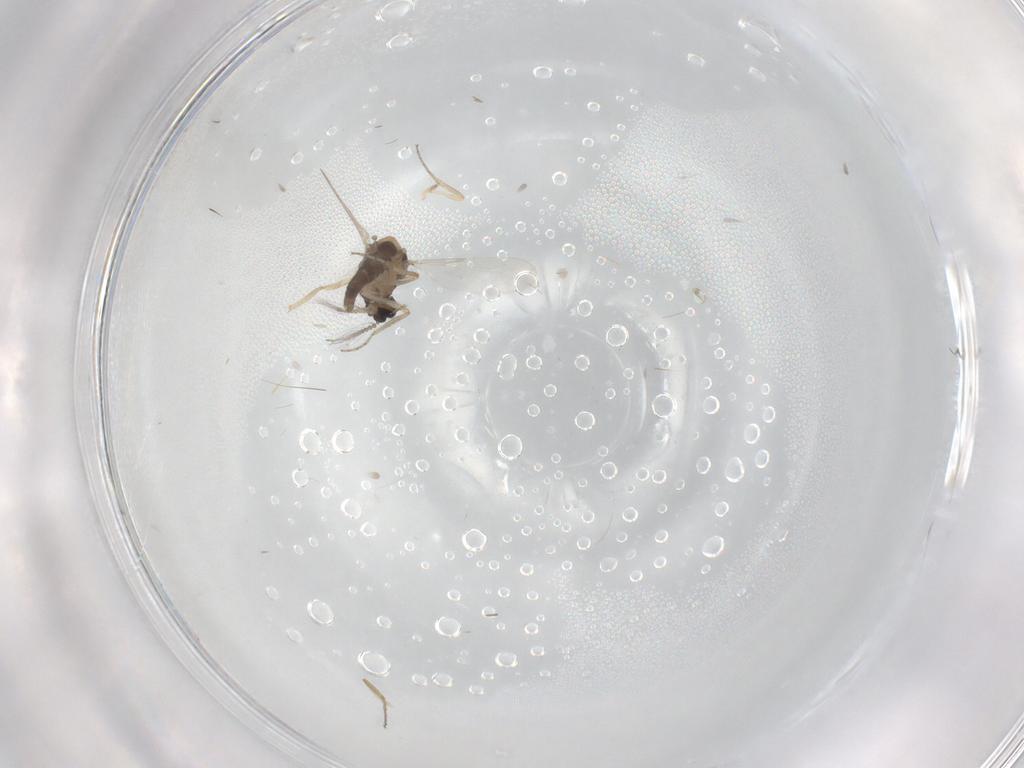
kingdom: Animalia
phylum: Arthropoda
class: Insecta
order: Diptera
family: Ceratopogonidae
